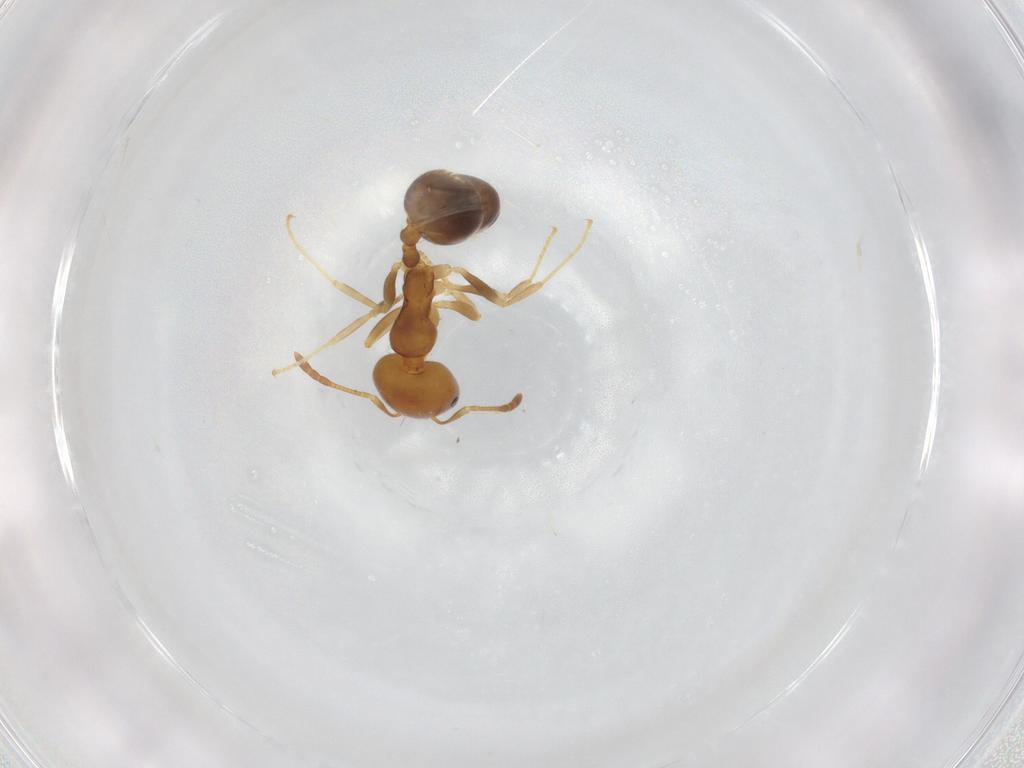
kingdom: Animalia
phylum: Arthropoda
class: Insecta
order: Hymenoptera
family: Formicidae
